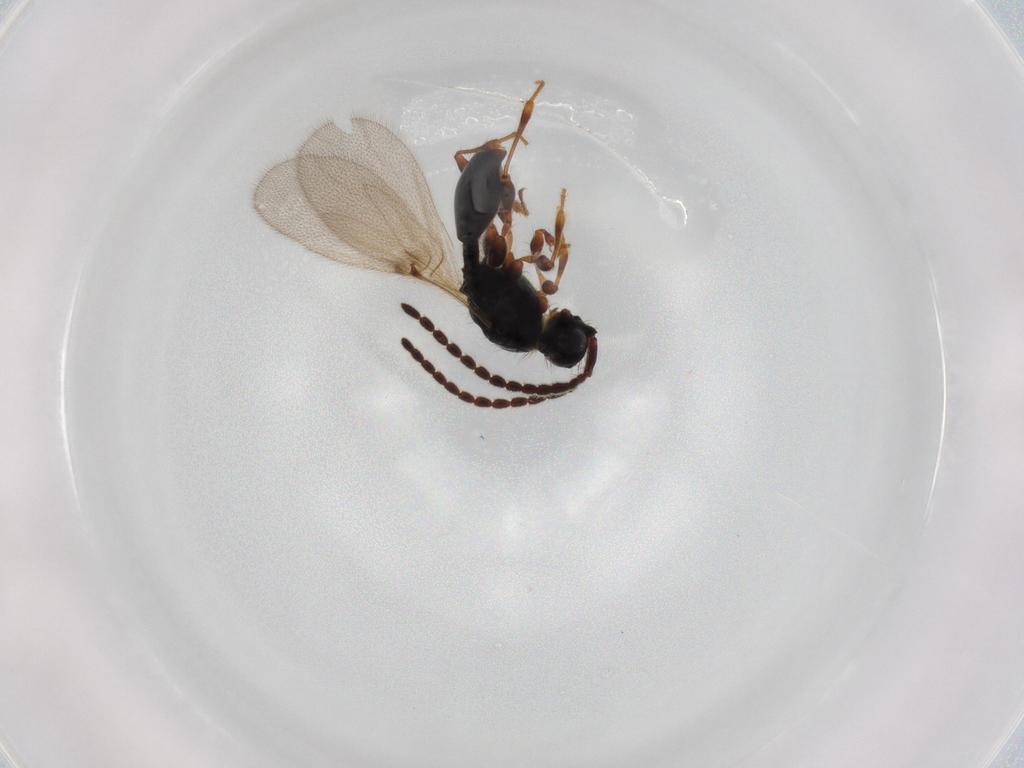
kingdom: Animalia
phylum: Arthropoda
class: Insecta
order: Hymenoptera
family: Diapriidae
